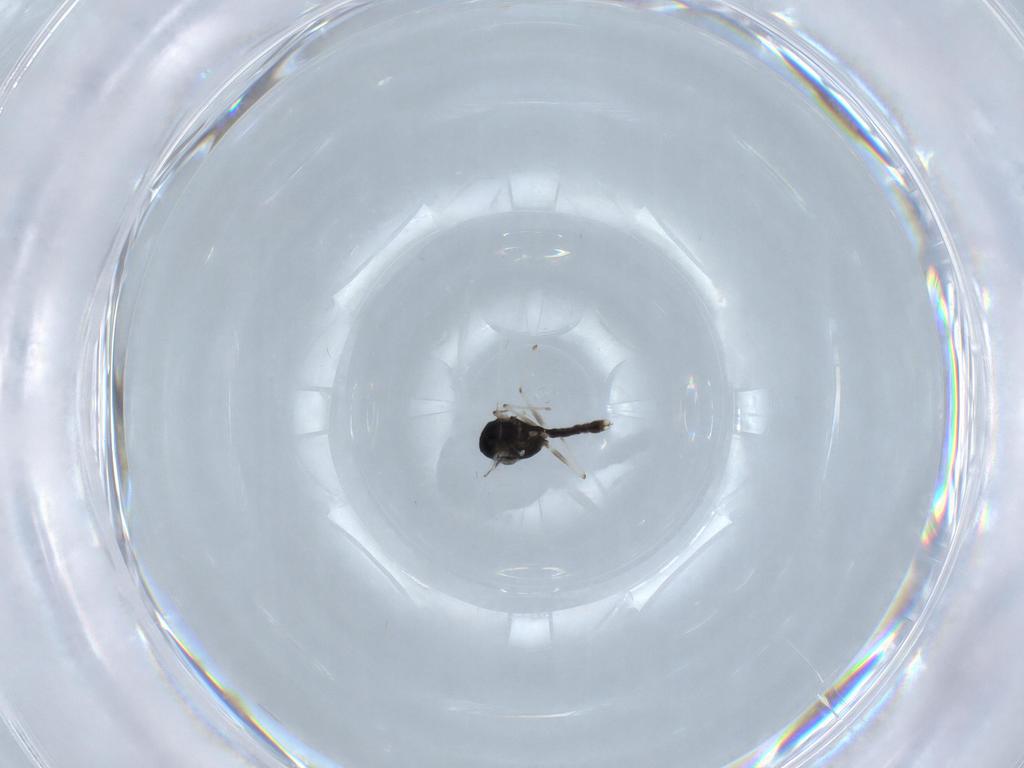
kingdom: Animalia
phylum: Arthropoda
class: Insecta
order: Diptera
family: Chironomidae
